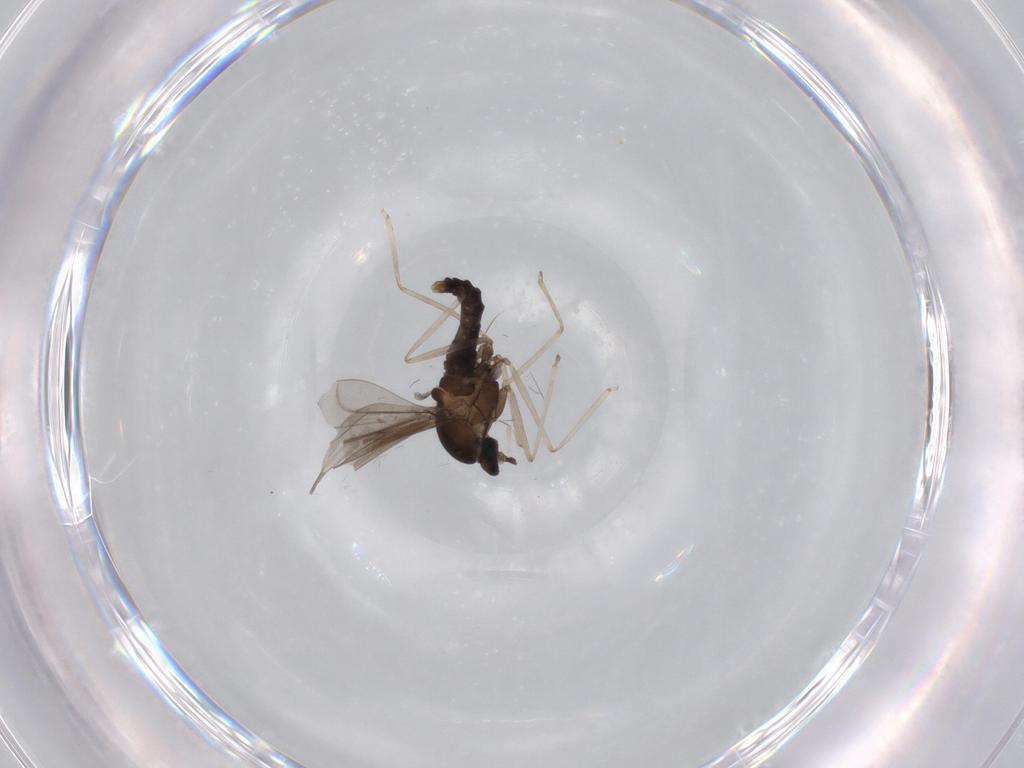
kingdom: Animalia
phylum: Arthropoda
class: Insecta
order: Diptera
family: Cecidomyiidae
